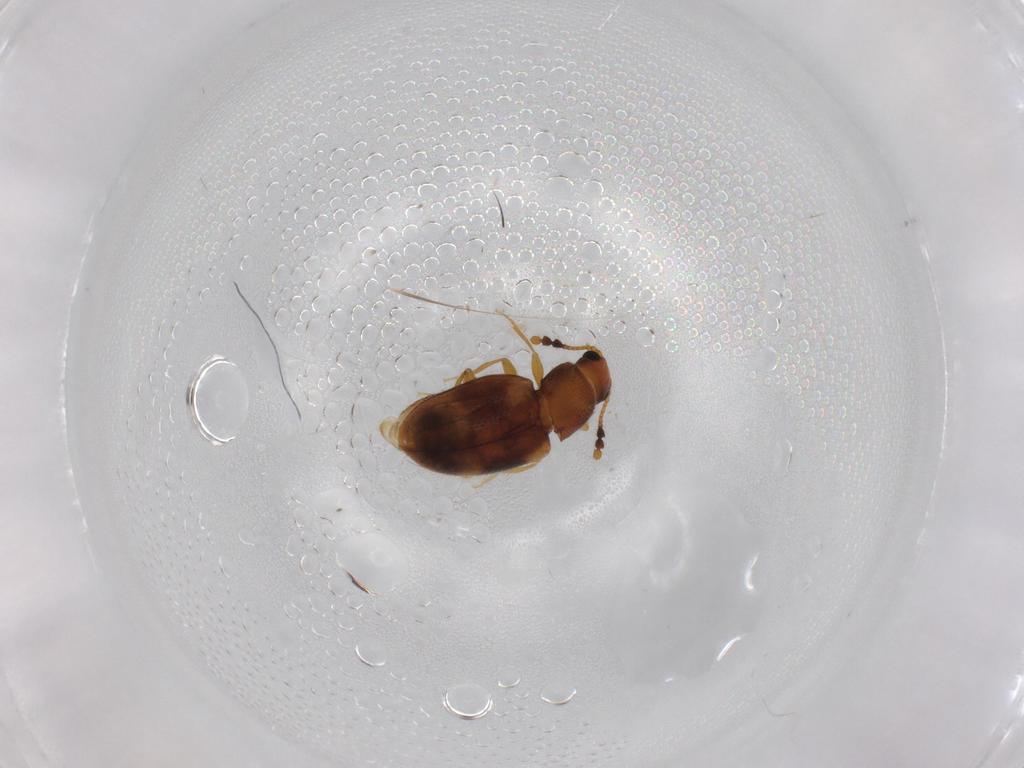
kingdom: Animalia
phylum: Arthropoda
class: Insecta
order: Coleoptera
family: Erotylidae
